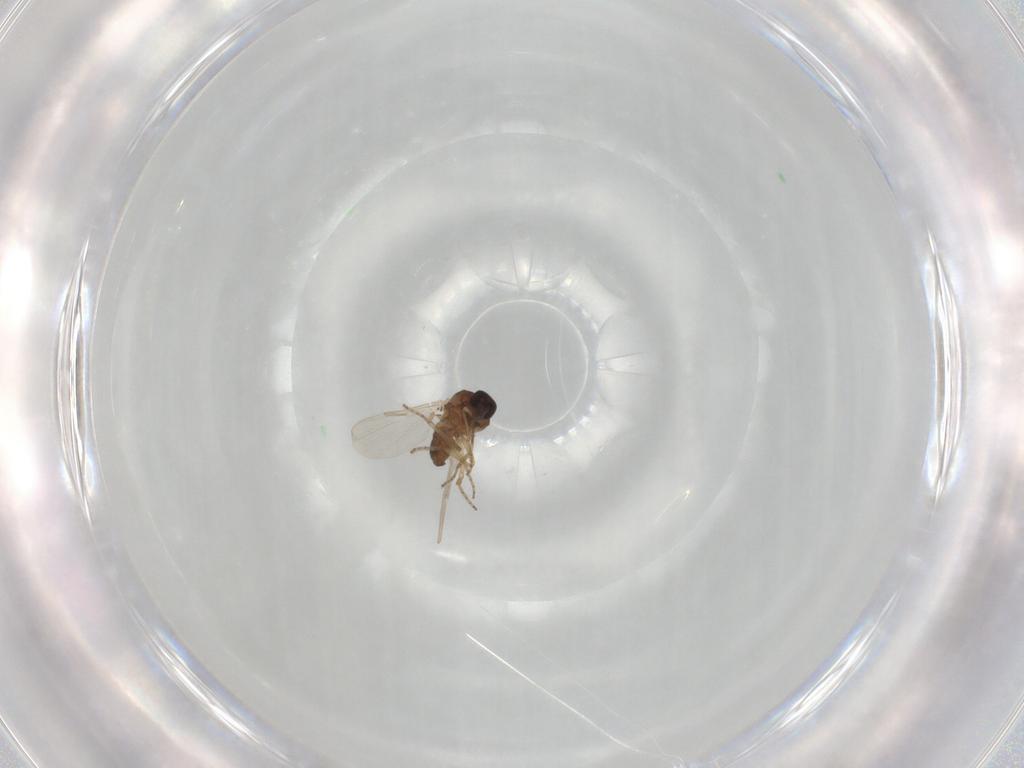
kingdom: Animalia
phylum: Arthropoda
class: Insecta
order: Diptera
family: Ceratopogonidae
